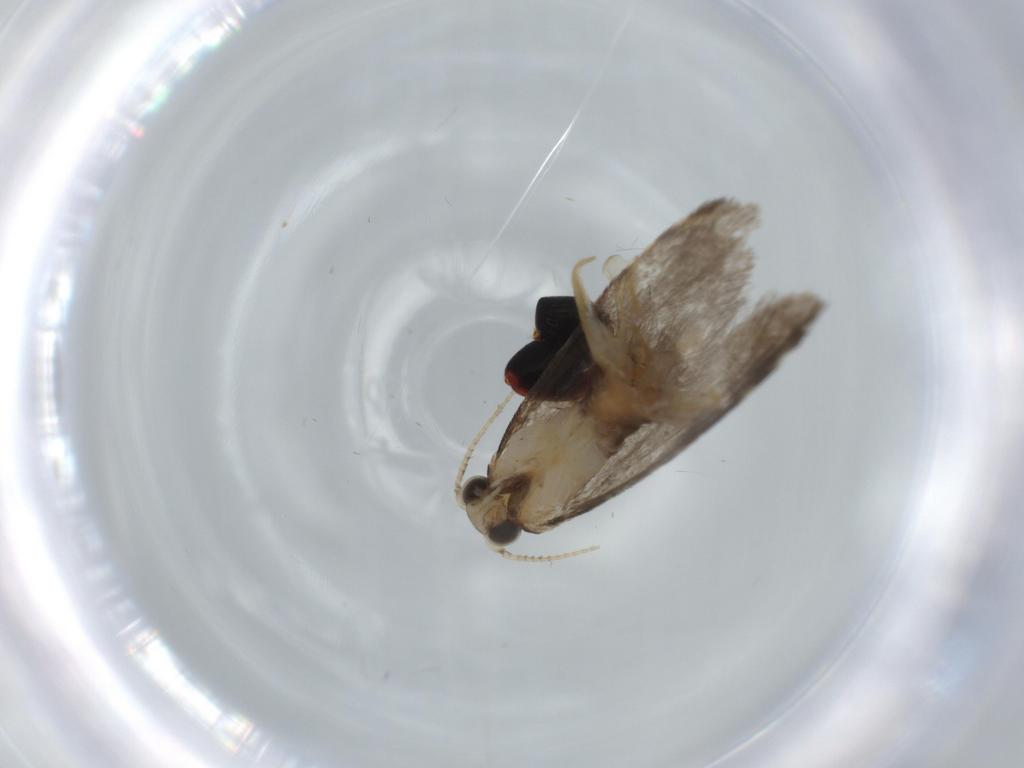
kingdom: Animalia
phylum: Arthropoda
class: Insecta
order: Lepidoptera
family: Tineidae
